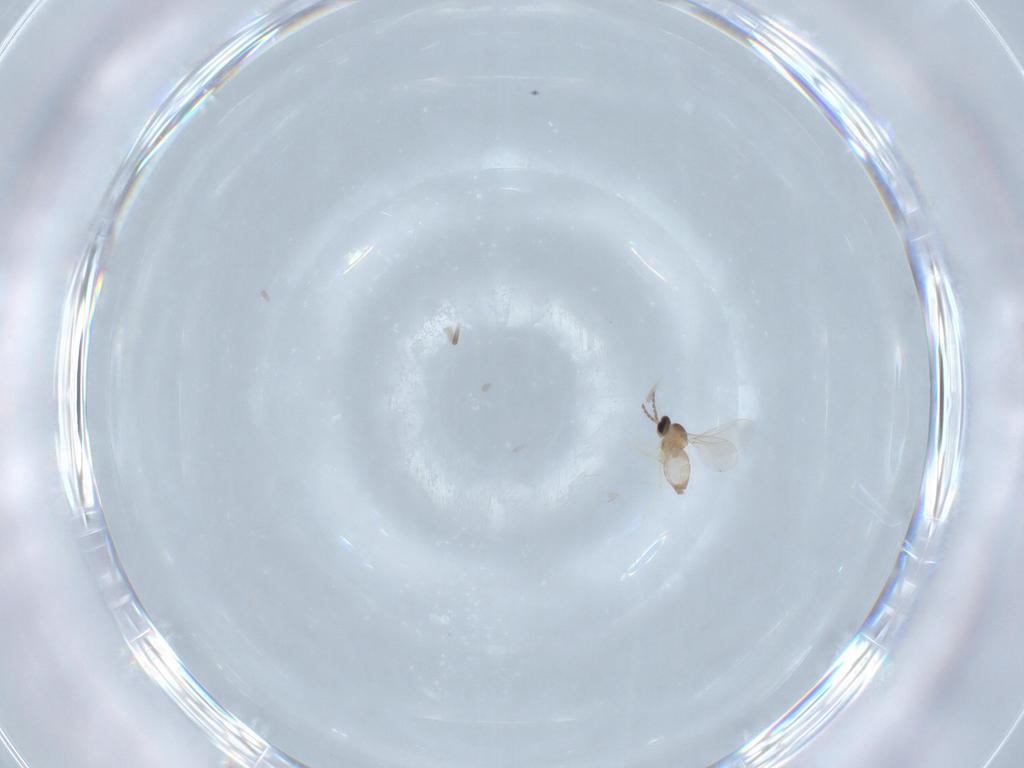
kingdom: Animalia
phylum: Arthropoda
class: Insecta
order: Diptera
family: Cecidomyiidae
